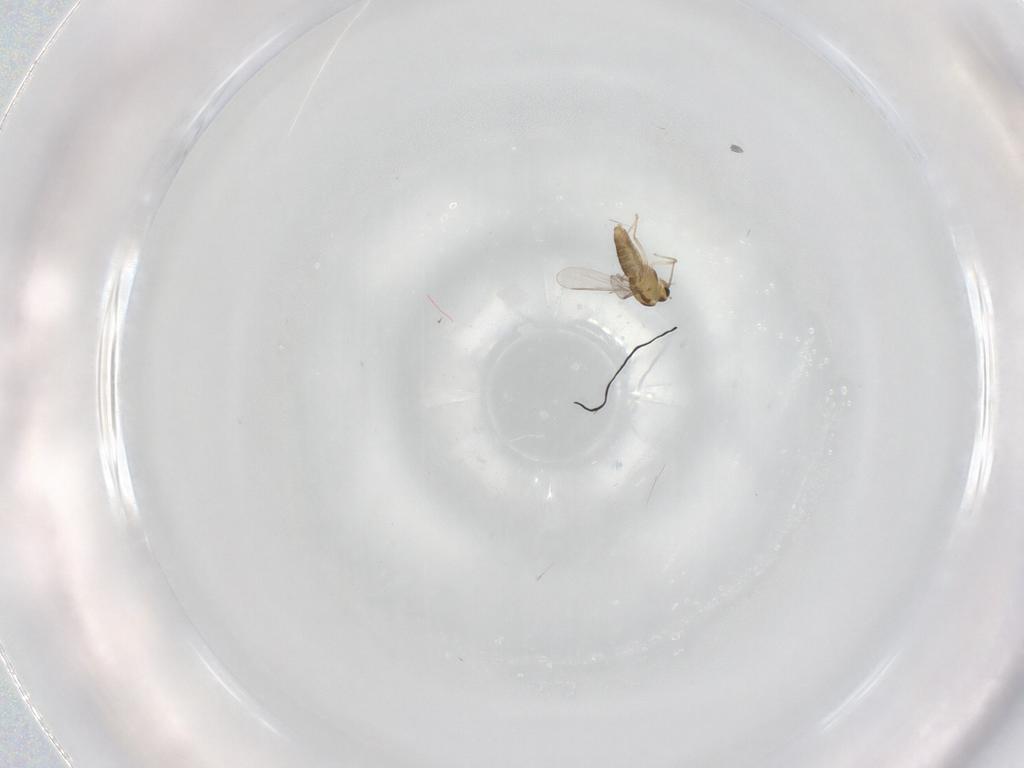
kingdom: Animalia
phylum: Arthropoda
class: Insecta
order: Diptera
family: Chironomidae
